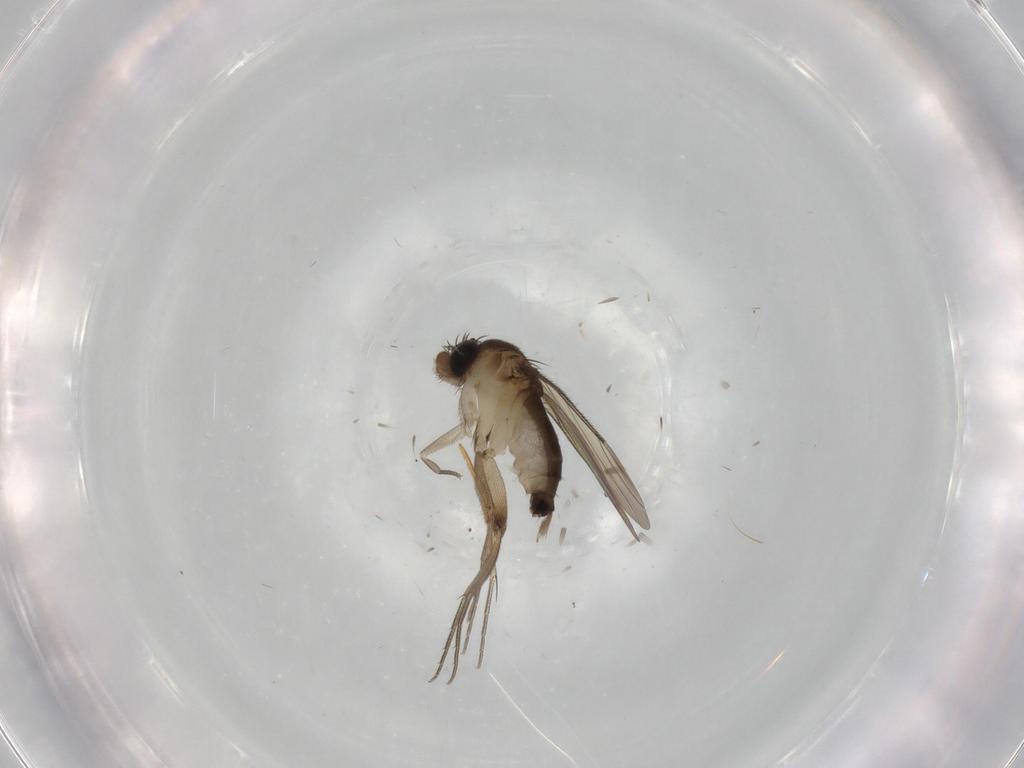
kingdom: Animalia
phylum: Arthropoda
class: Insecta
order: Diptera
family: Phoridae
